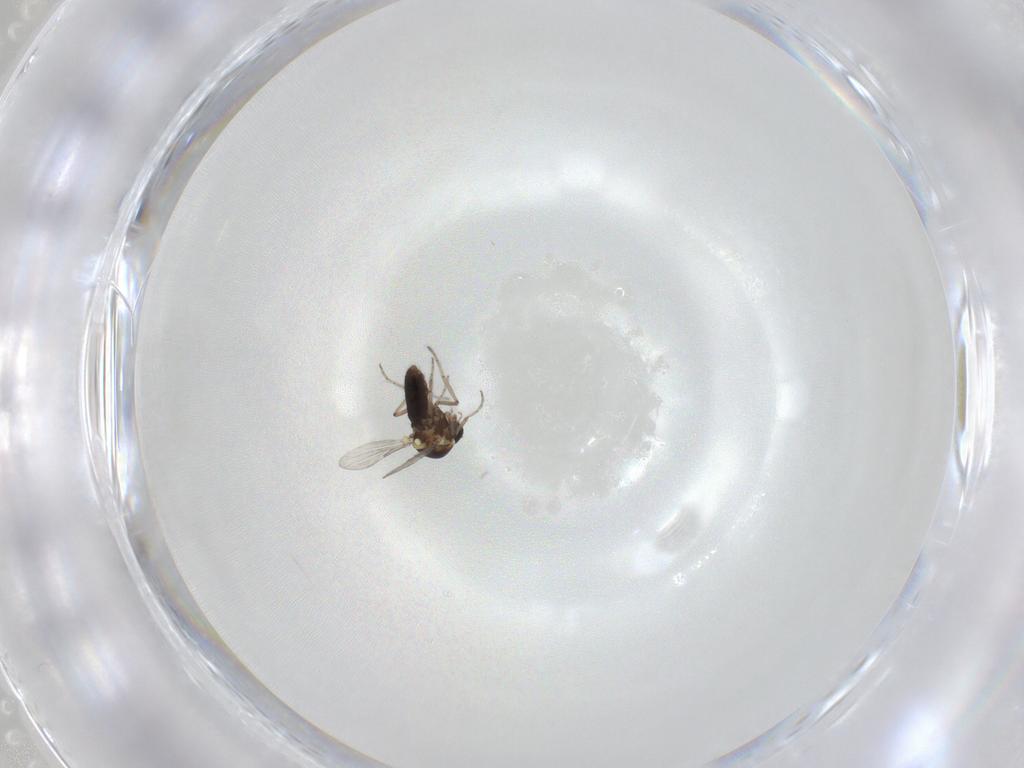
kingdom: Animalia
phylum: Arthropoda
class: Insecta
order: Diptera
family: Ceratopogonidae
